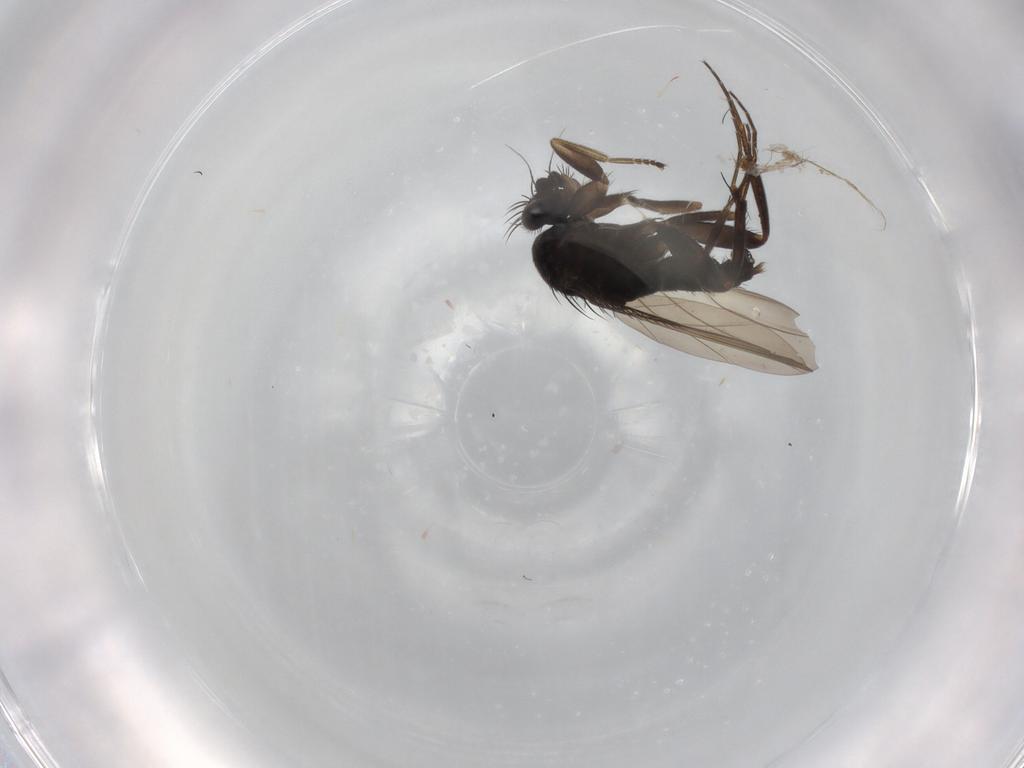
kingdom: Animalia
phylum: Arthropoda
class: Insecta
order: Diptera
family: Phoridae
